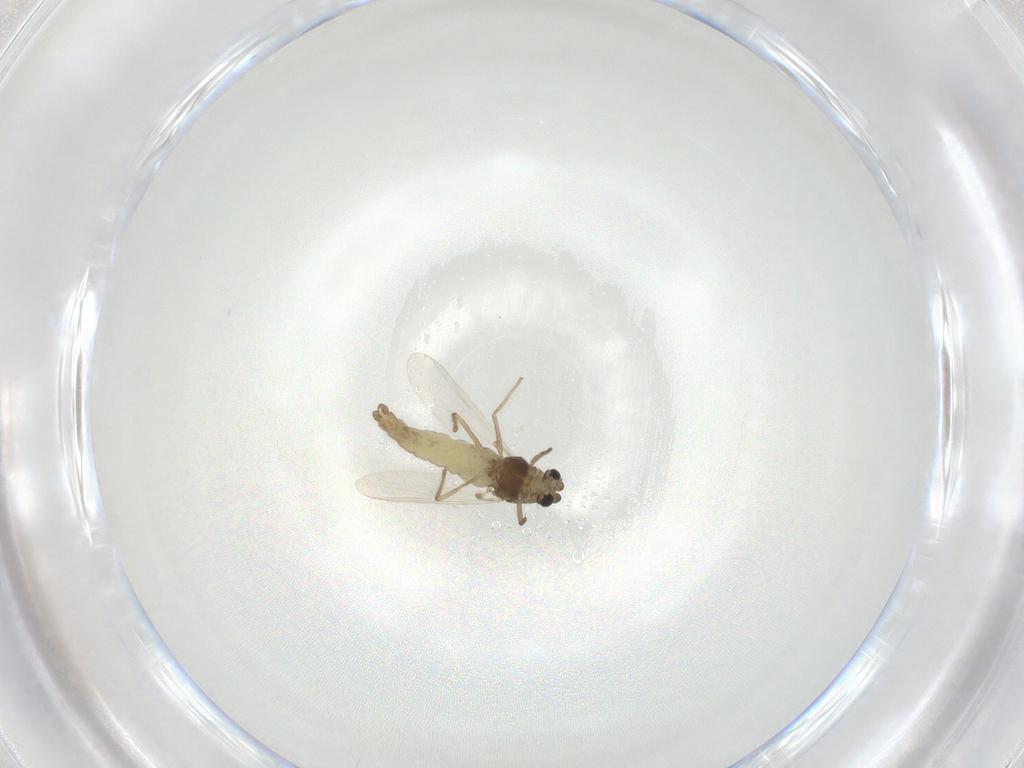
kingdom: Animalia
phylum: Arthropoda
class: Insecta
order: Diptera
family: Chironomidae
